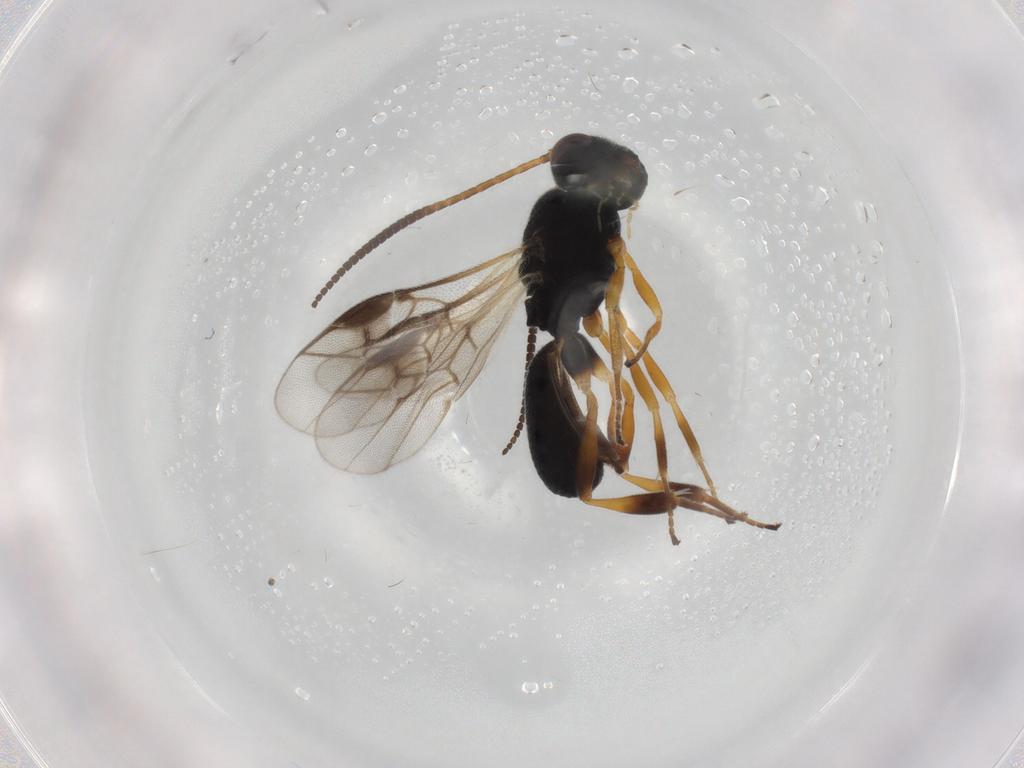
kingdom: Animalia
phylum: Arthropoda
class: Insecta
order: Hymenoptera
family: Braconidae
